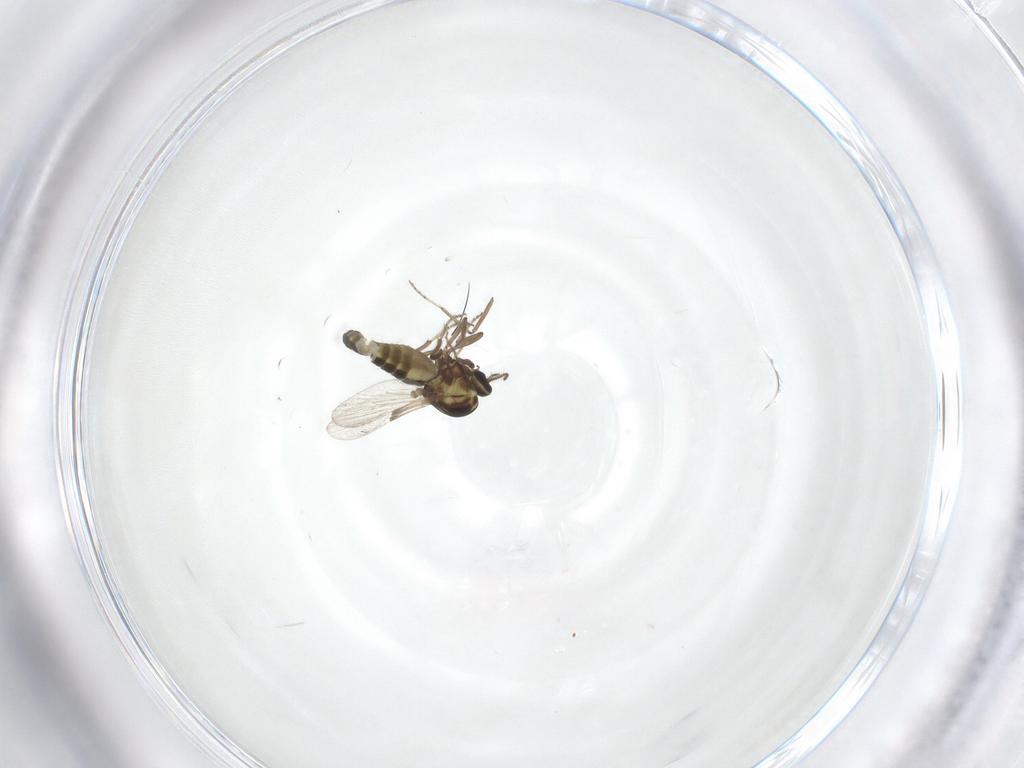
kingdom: Animalia
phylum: Arthropoda
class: Insecta
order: Diptera
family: Ceratopogonidae
